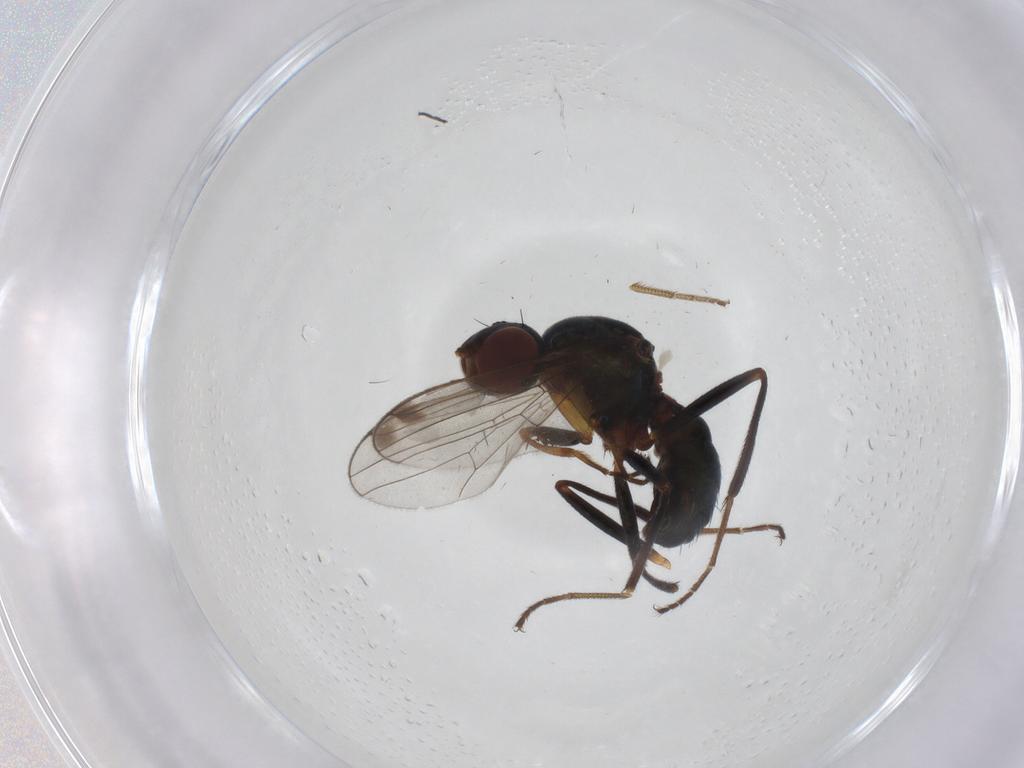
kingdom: Animalia
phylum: Arthropoda
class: Insecta
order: Diptera
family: Sepsidae
